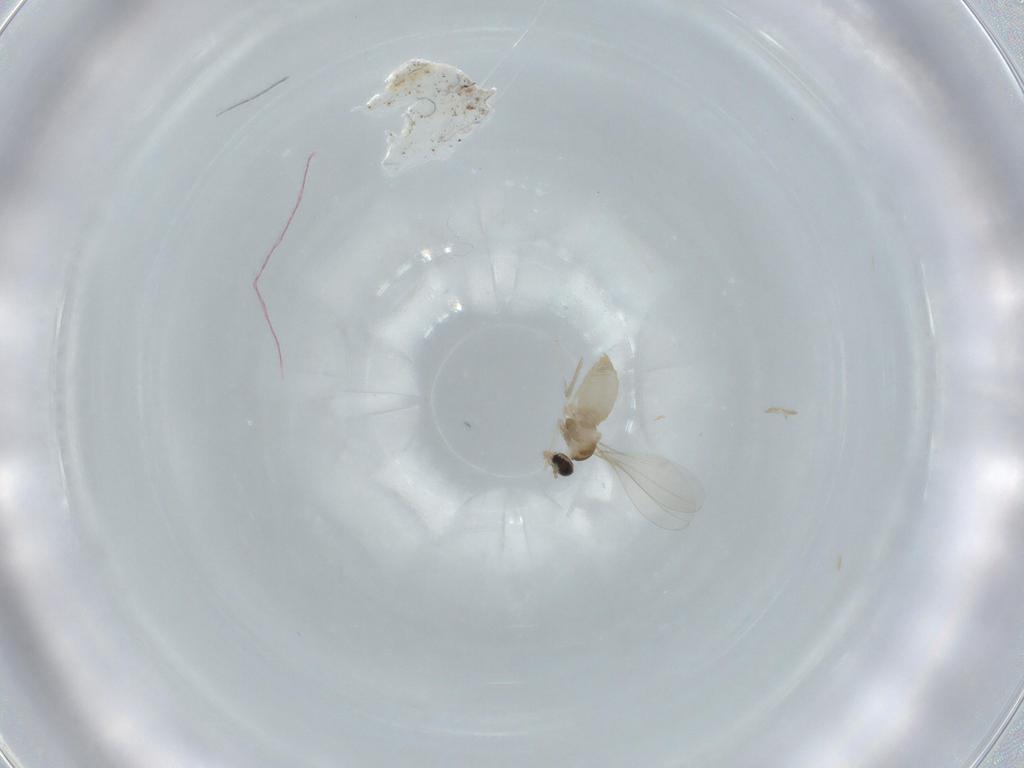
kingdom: Animalia
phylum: Arthropoda
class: Insecta
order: Diptera
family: Cecidomyiidae
